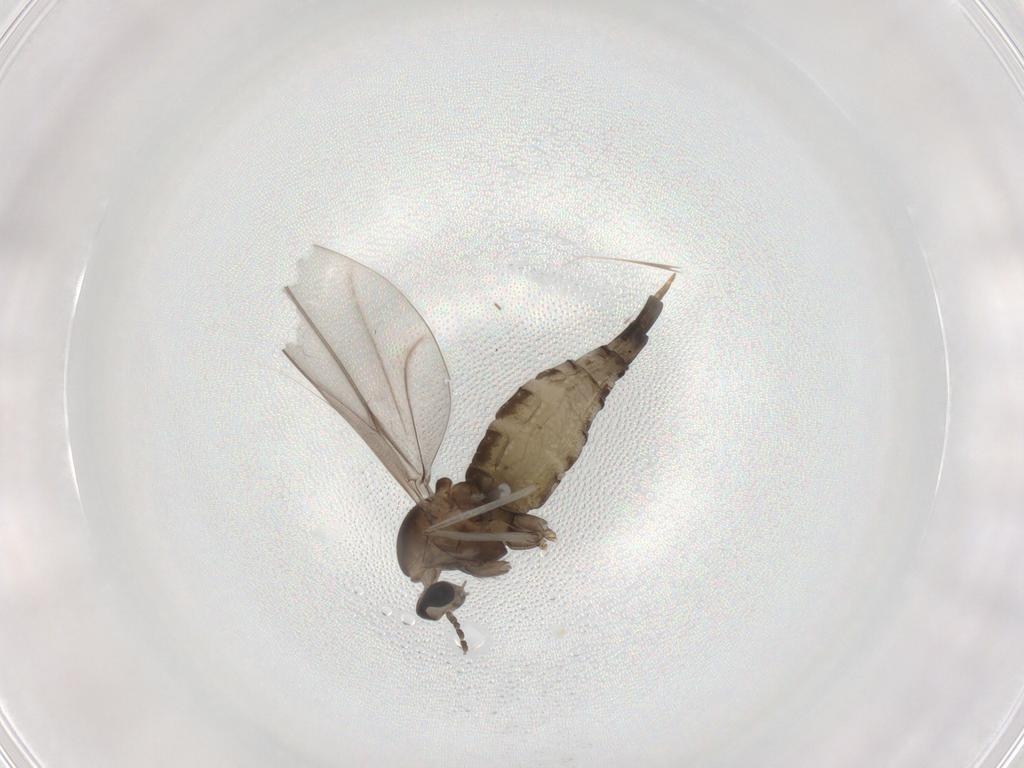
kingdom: Animalia
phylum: Arthropoda
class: Insecta
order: Diptera
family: Cecidomyiidae
